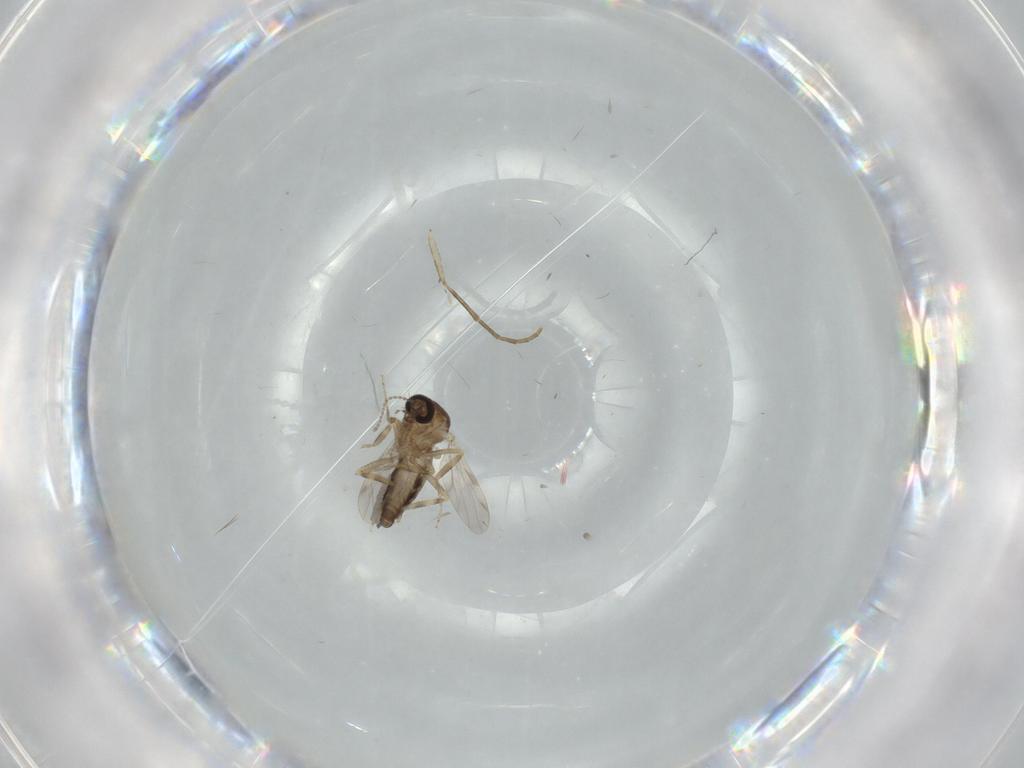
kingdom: Animalia
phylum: Arthropoda
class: Insecta
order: Diptera
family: Ceratopogonidae
